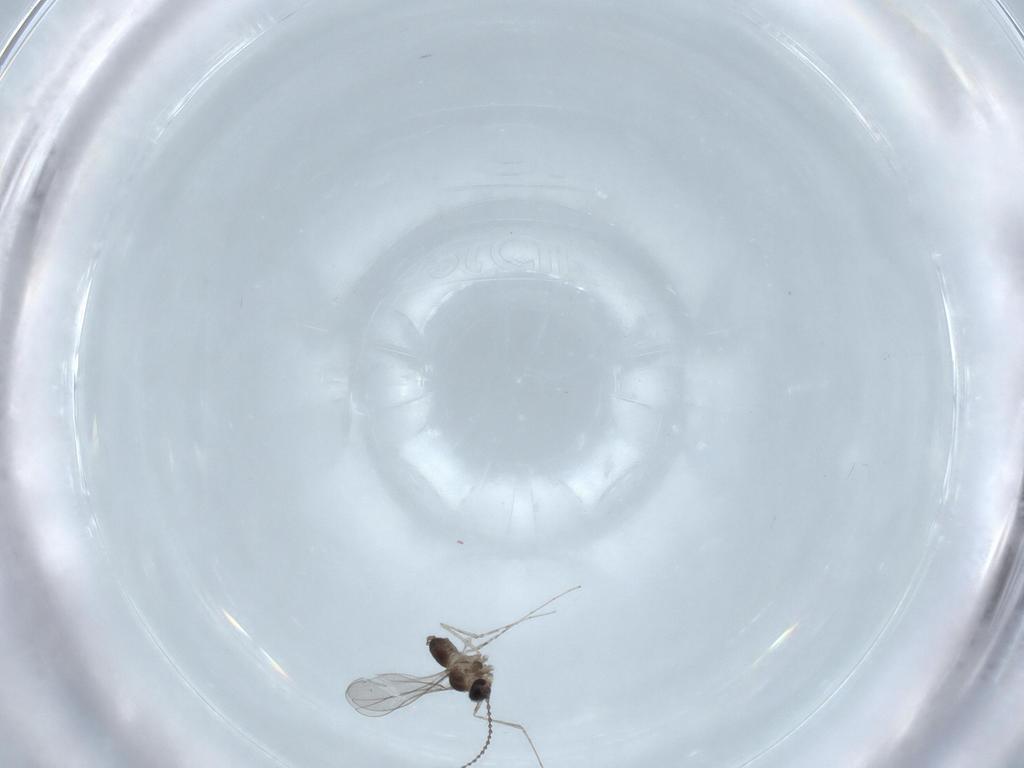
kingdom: Animalia
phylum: Arthropoda
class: Insecta
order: Diptera
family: Cecidomyiidae
